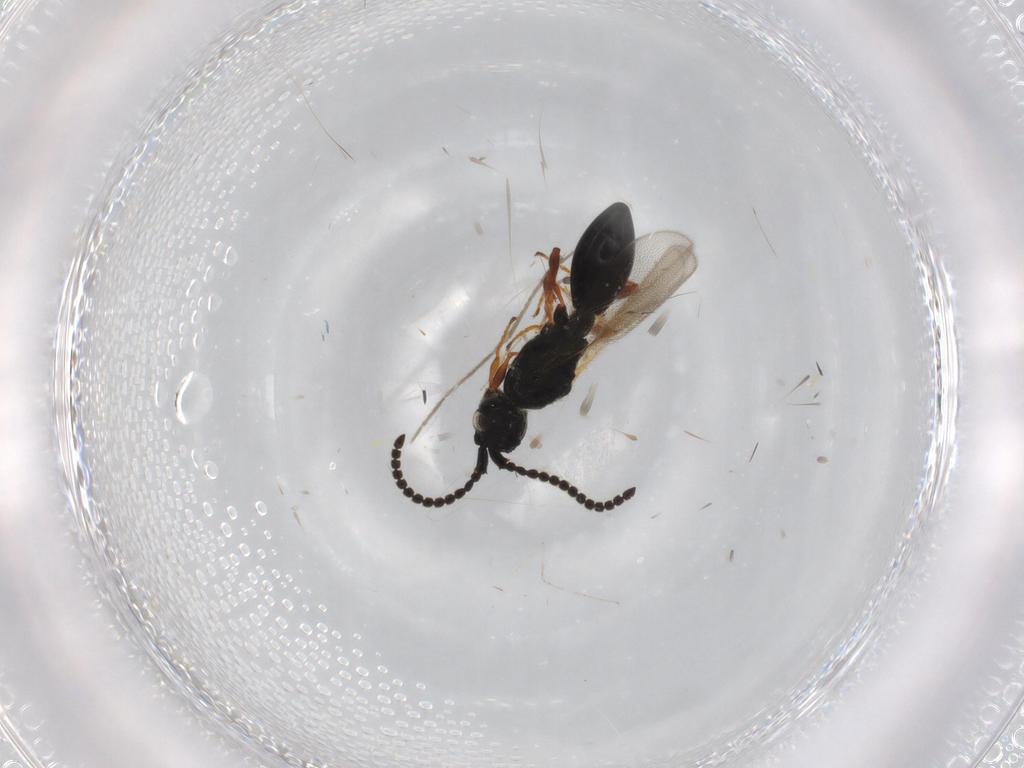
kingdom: Animalia
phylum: Arthropoda
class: Insecta
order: Hymenoptera
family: Diapriidae
